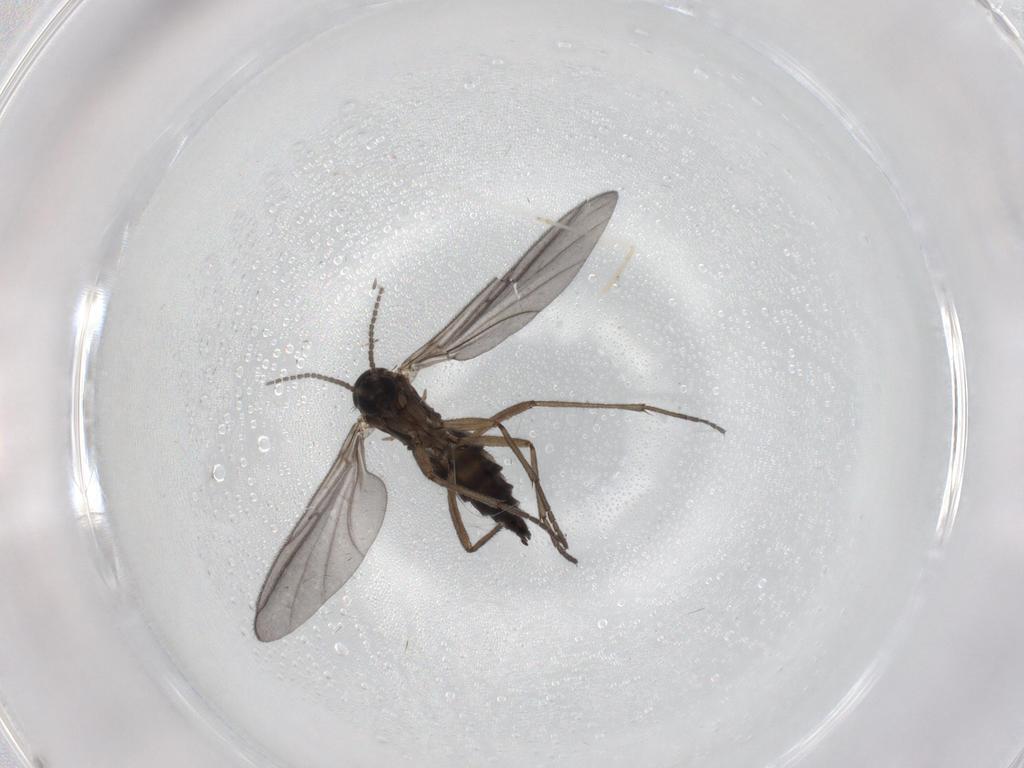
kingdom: Animalia
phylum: Arthropoda
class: Insecta
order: Diptera
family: Sciaridae
